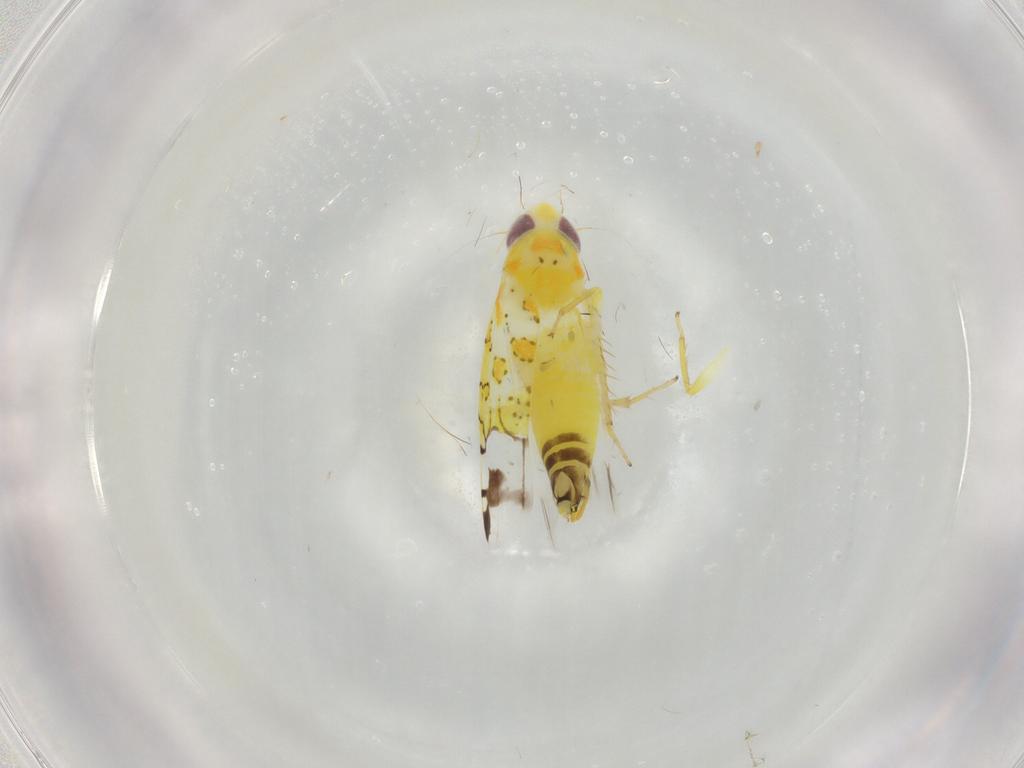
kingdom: Animalia
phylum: Arthropoda
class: Insecta
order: Hemiptera
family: Cicadellidae
